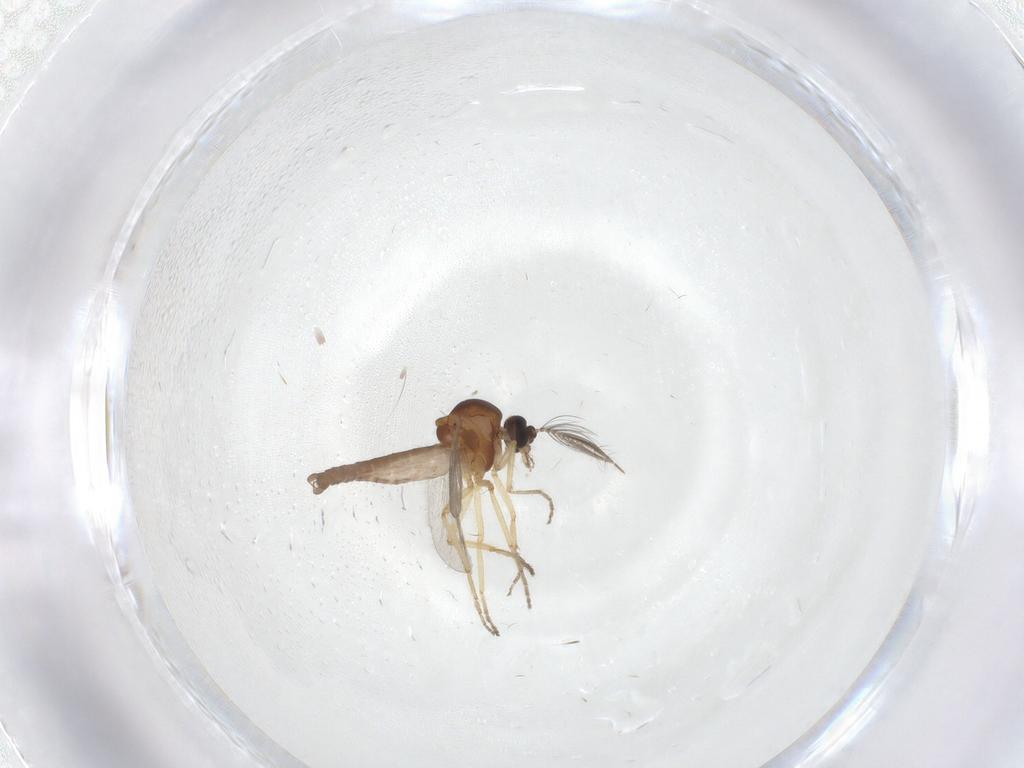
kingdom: Animalia
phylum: Arthropoda
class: Insecta
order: Diptera
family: Ceratopogonidae
